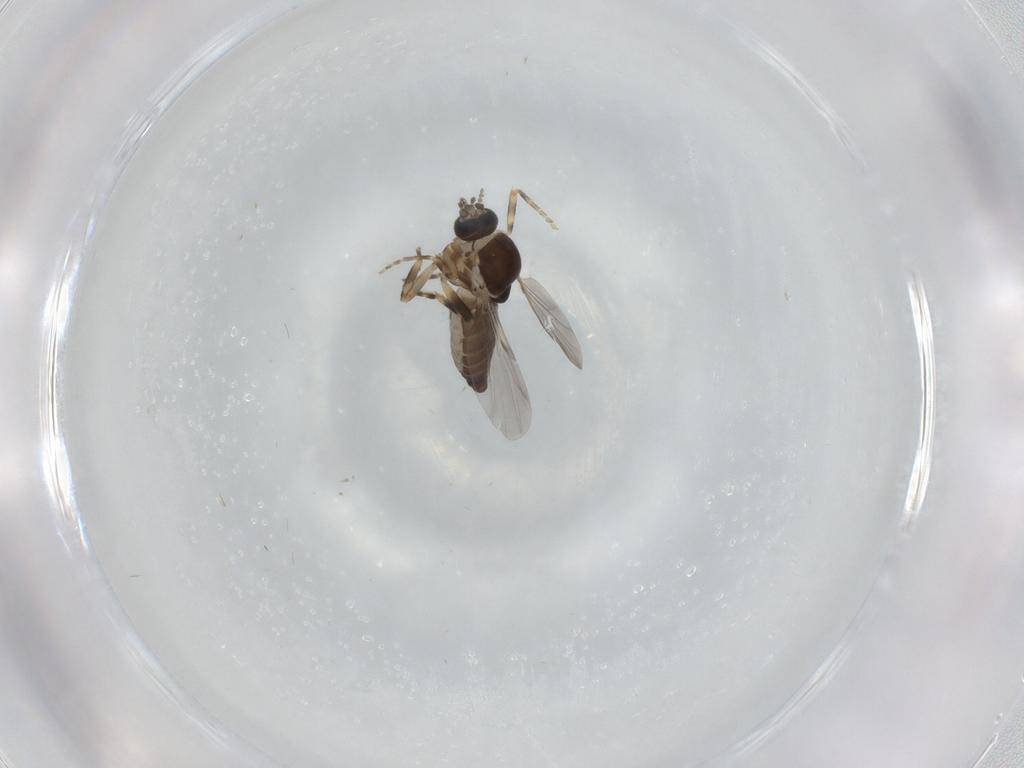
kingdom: Animalia
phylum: Arthropoda
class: Insecta
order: Diptera
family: Ceratopogonidae
